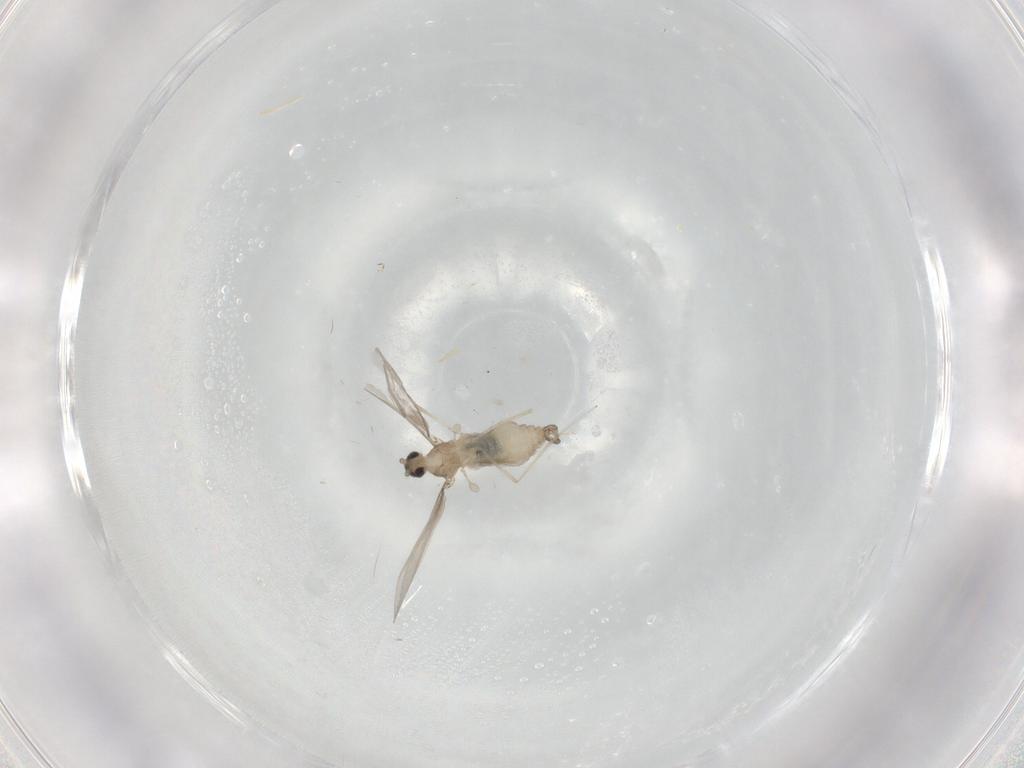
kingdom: Animalia
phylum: Arthropoda
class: Insecta
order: Diptera
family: Cecidomyiidae
